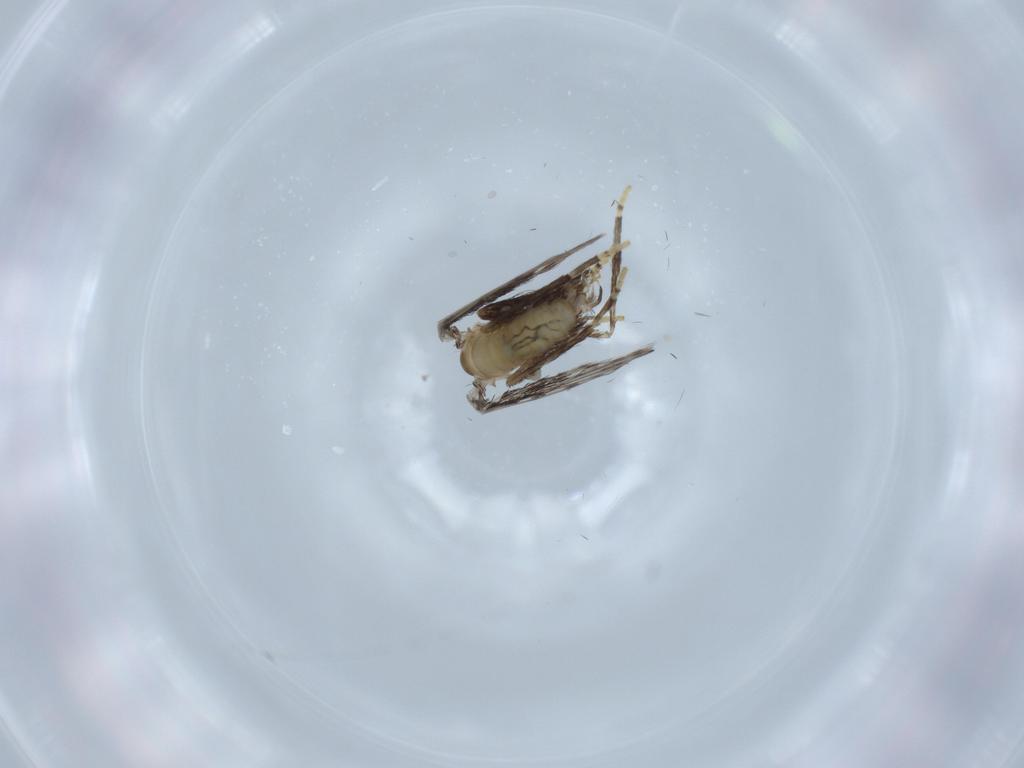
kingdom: Animalia
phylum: Arthropoda
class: Insecta
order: Diptera
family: Psychodidae
